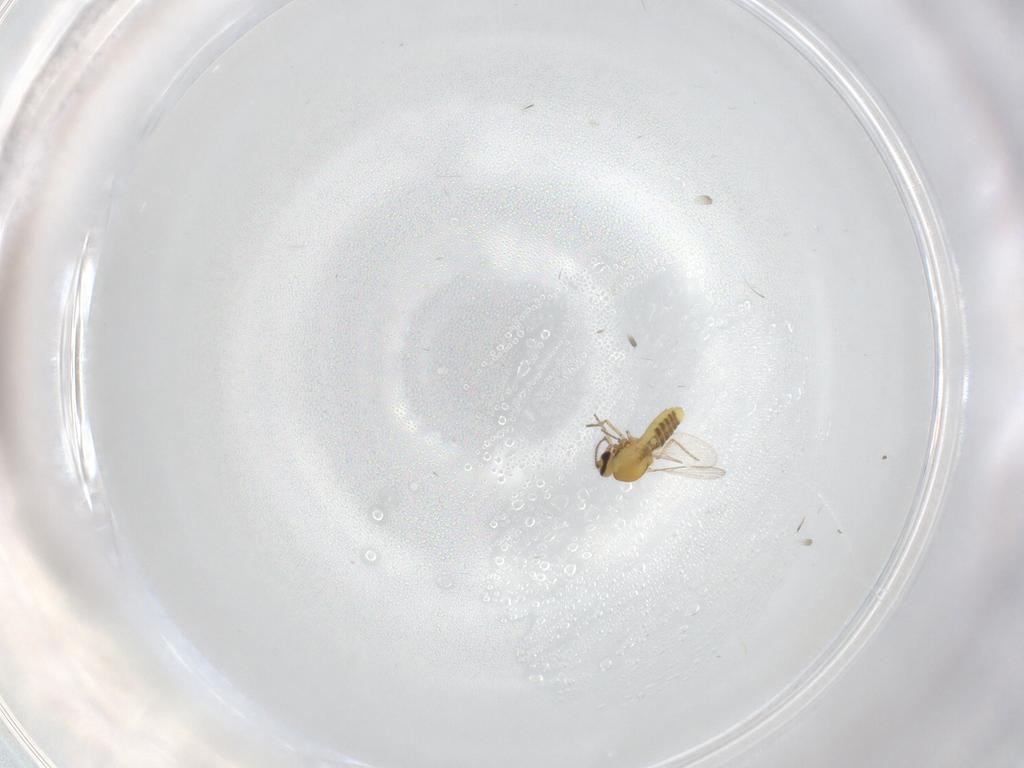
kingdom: Animalia
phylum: Arthropoda
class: Insecta
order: Diptera
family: Ceratopogonidae
